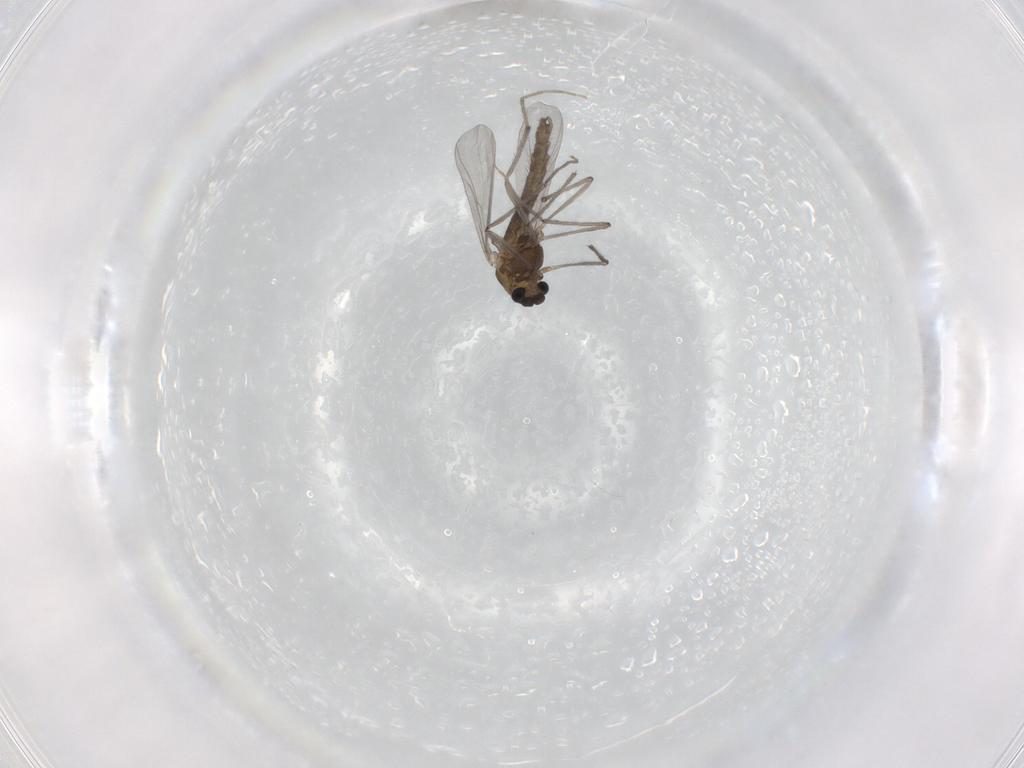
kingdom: Animalia
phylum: Arthropoda
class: Insecta
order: Diptera
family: Chironomidae
